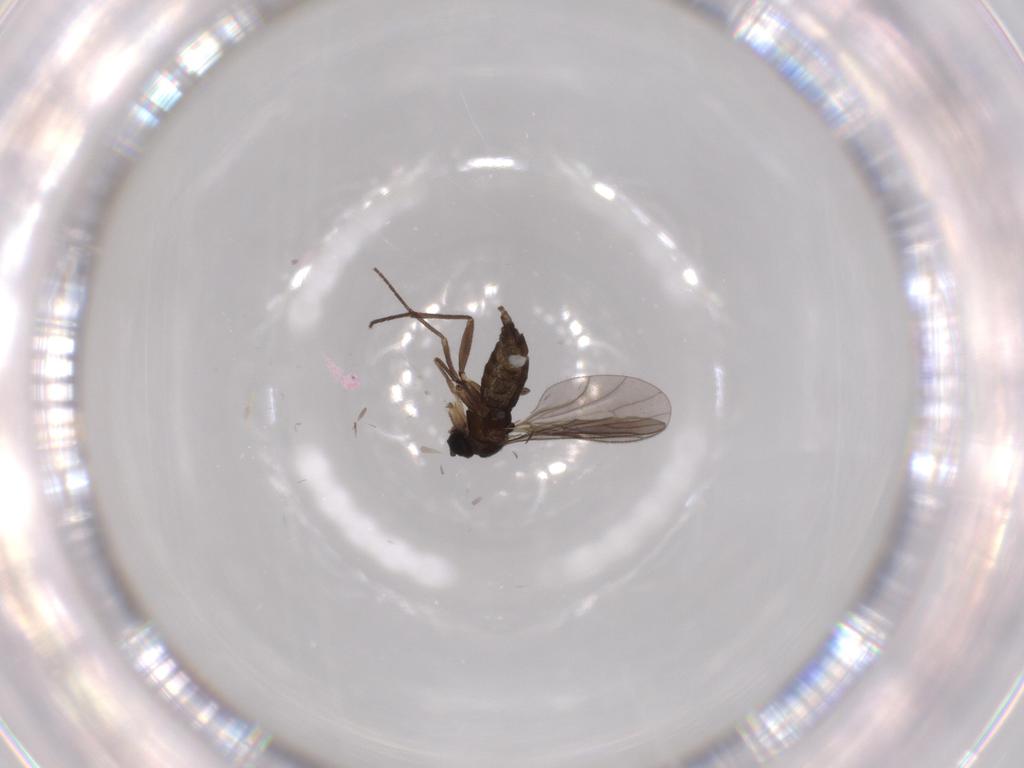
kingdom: Animalia
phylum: Arthropoda
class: Insecta
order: Diptera
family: Sciaridae
